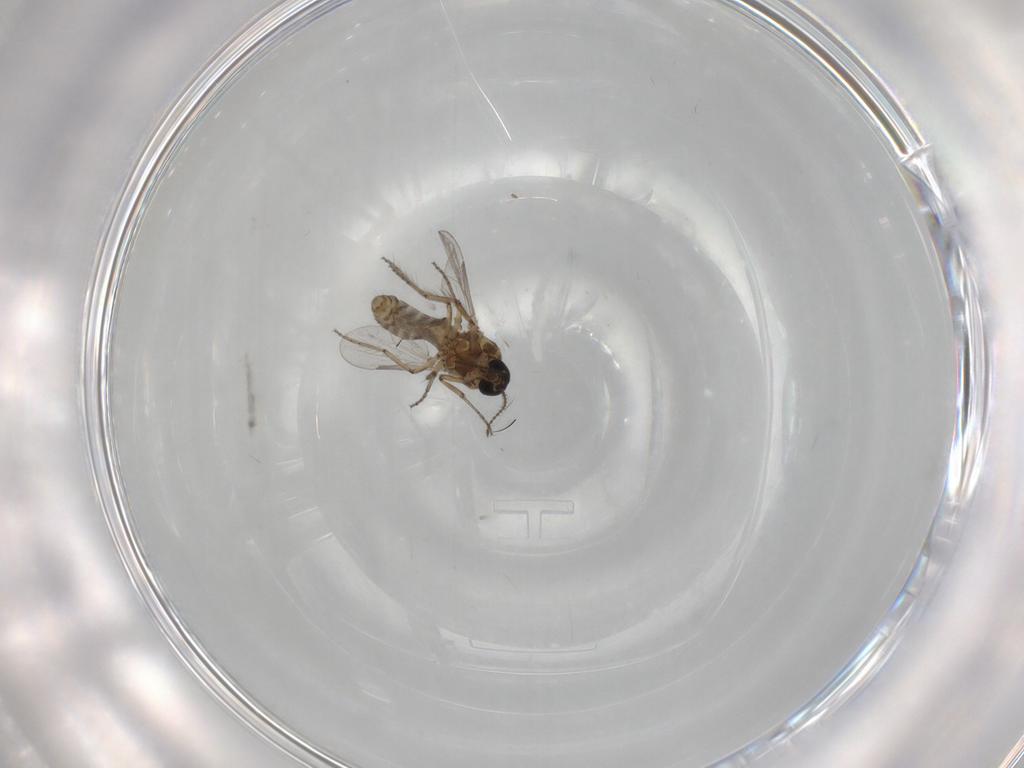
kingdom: Animalia
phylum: Arthropoda
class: Insecta
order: Diptera
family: Ceratopogonidae
